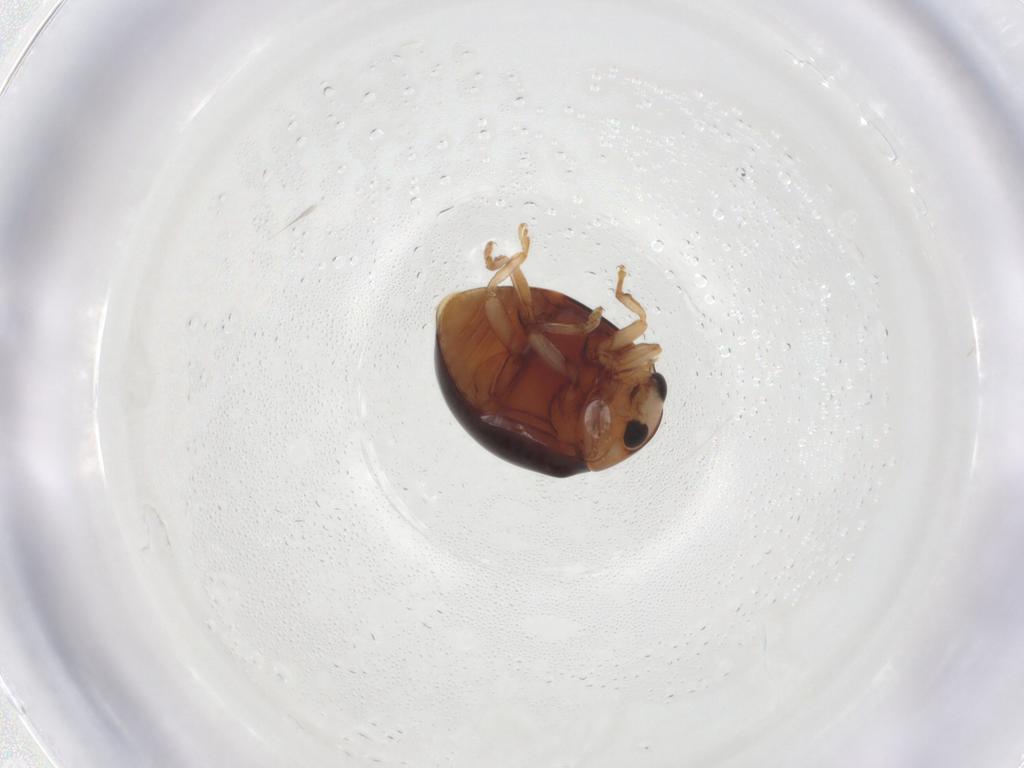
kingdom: Animalia
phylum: Arthropoda
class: Insecta
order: Coleoptera
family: Coccinellidae
